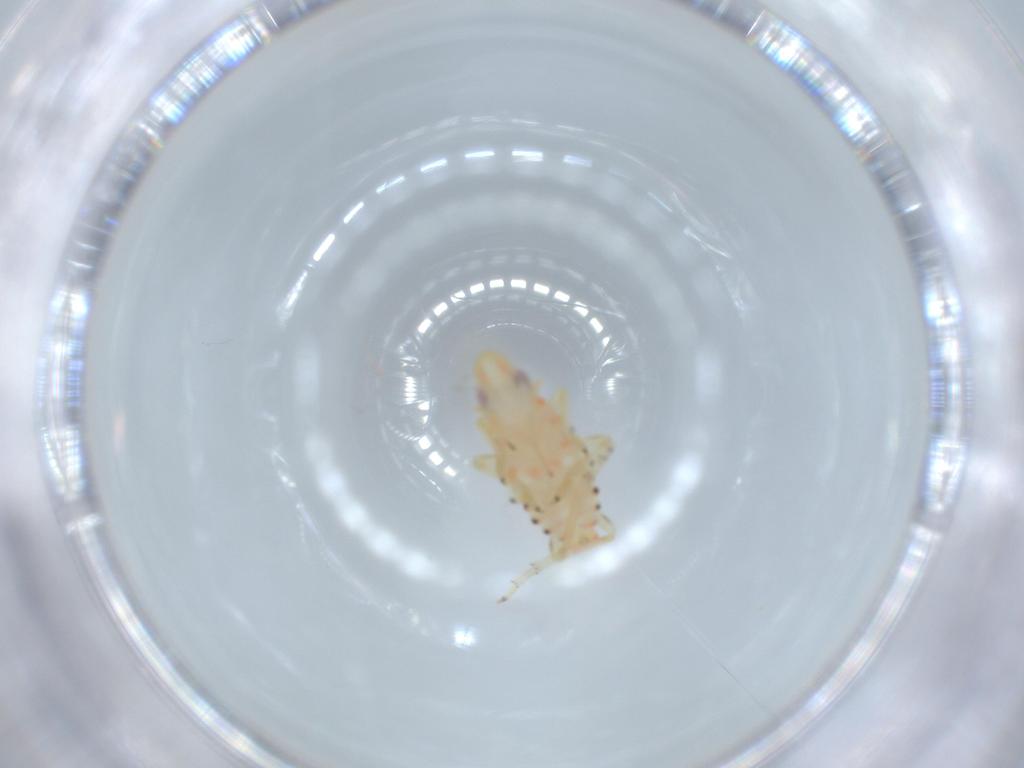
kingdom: Animalia
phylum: Arthropoda
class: Insecta
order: Hemiptera
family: Tropiduchidae
